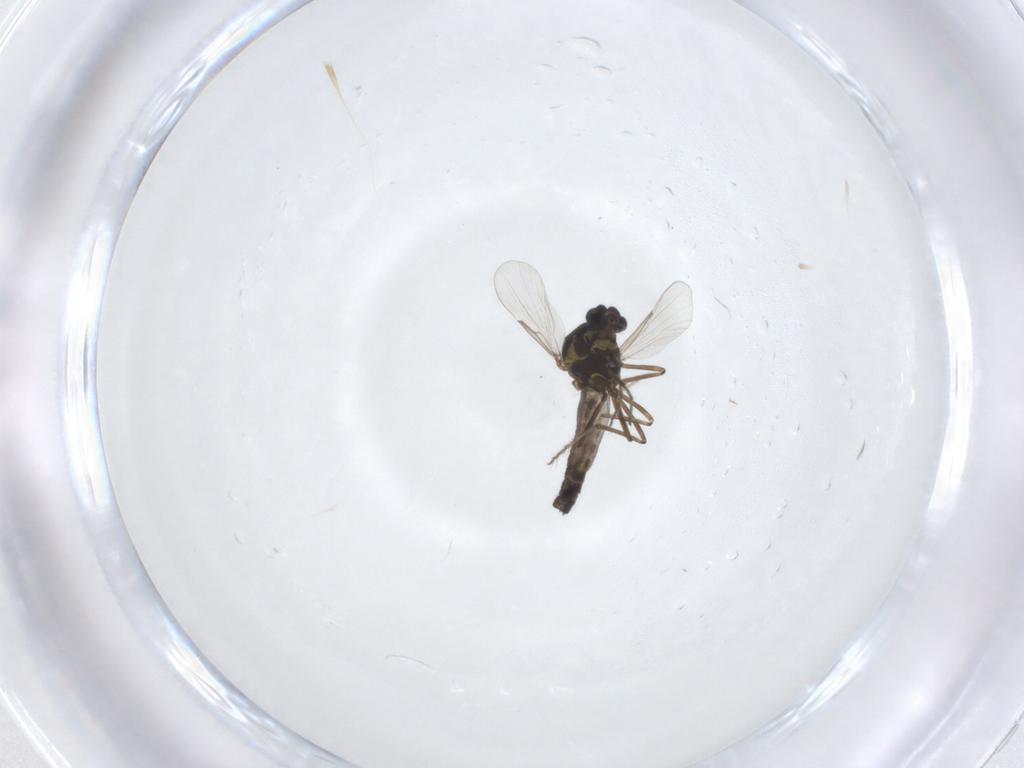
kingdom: Animalia
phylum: Arthropoda
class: Insecta
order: Diptera
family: Ceratopogonidae
